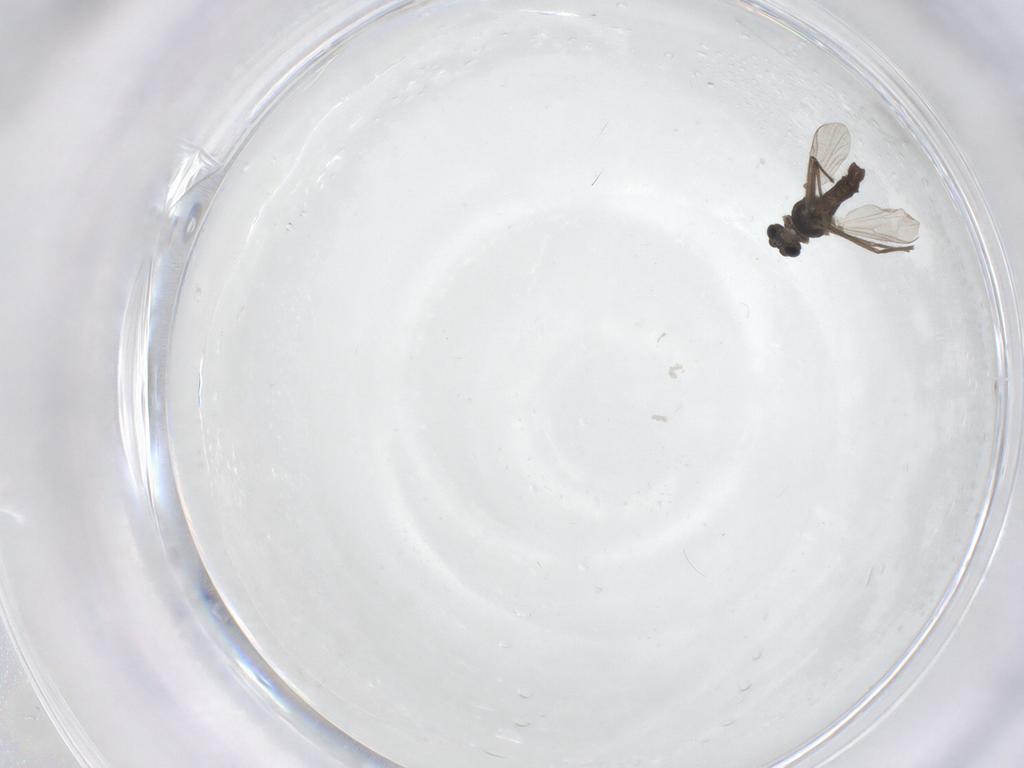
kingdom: Animalia
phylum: Arthropoda
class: Insecta
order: Diptera
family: Chironomidae
